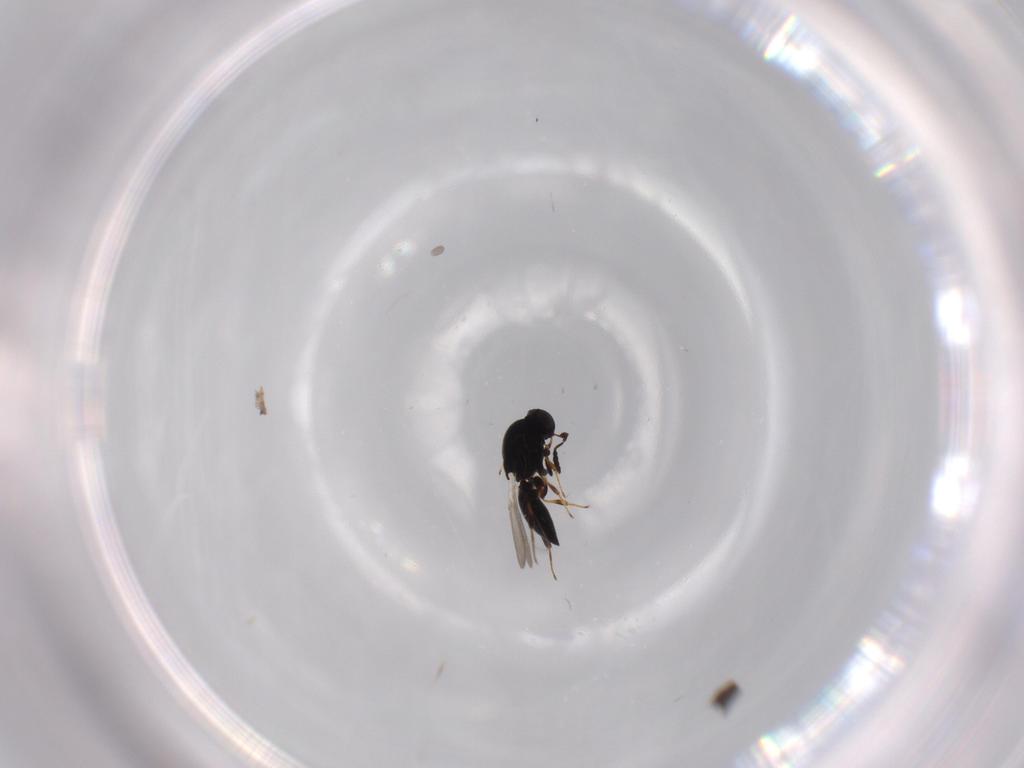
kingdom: Animalia
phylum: Arthropoda
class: Insecta
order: Hymenoptera
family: Platygastridae
